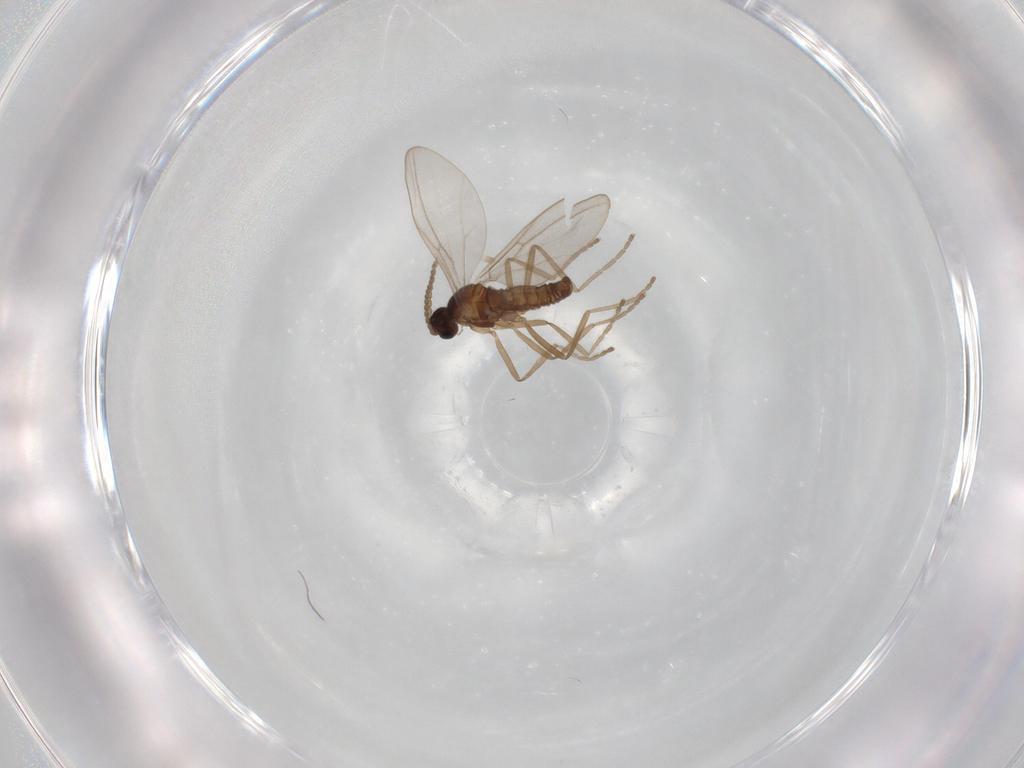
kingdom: Animalia
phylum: Arthropoda
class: Insecta
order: Diptera
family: Cecidomyiidae
